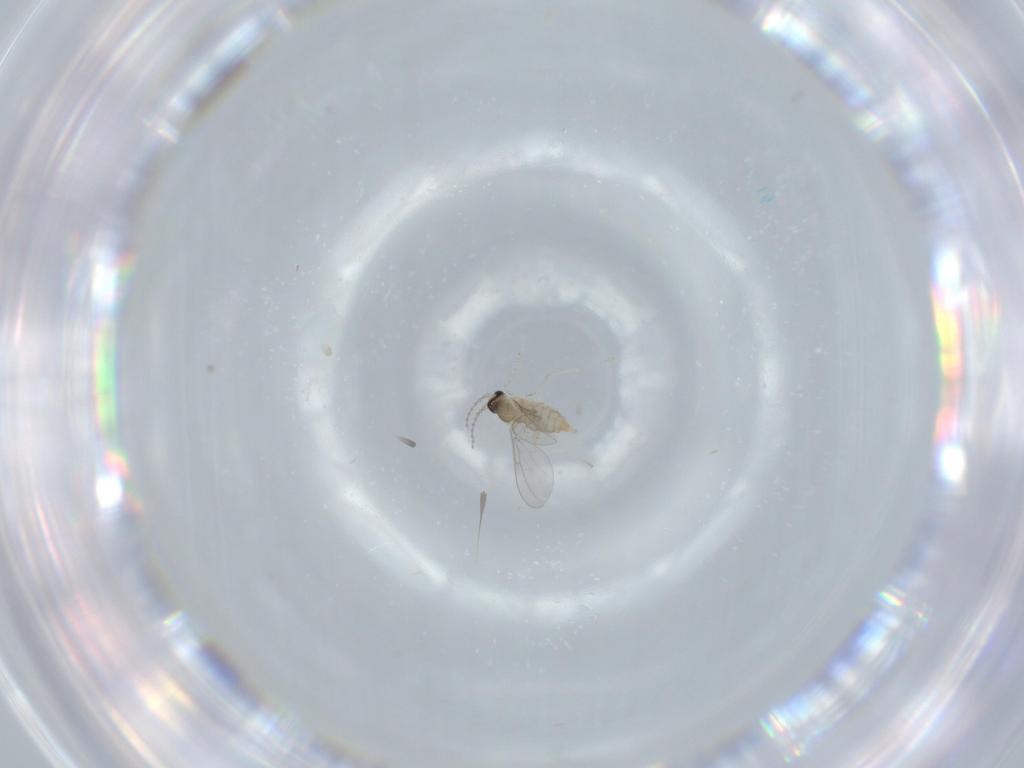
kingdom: Animalia
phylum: Arthropoda
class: Insecta
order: Diptera
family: Cecidomyiidae
